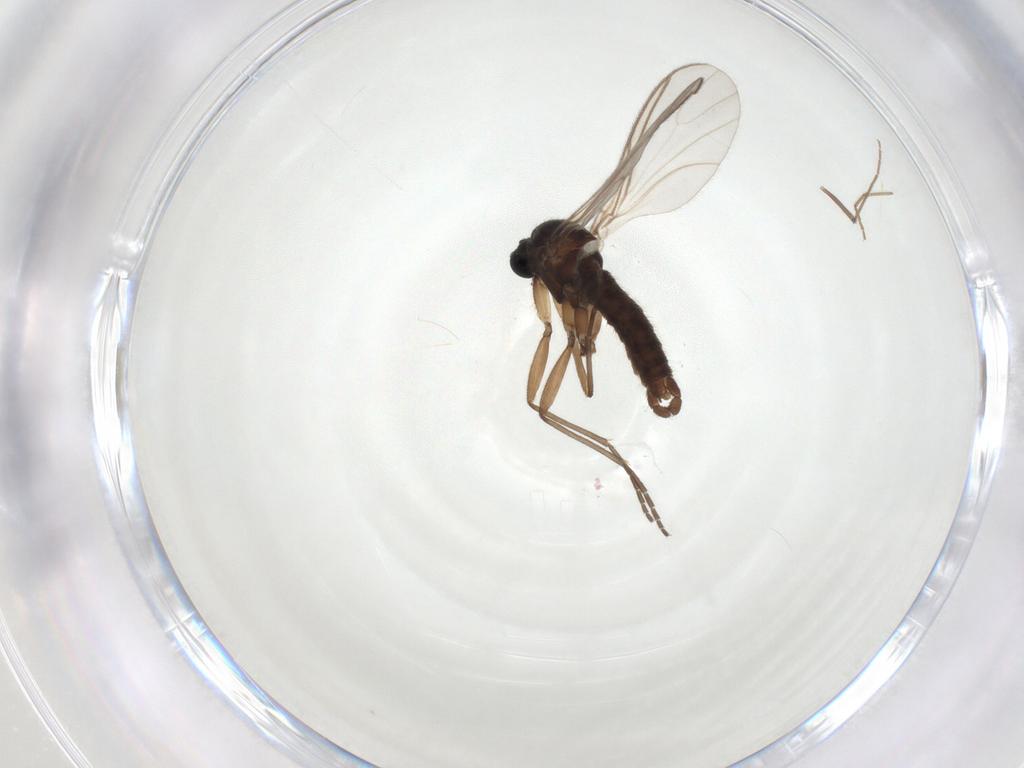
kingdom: Animalia
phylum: Arthropoda
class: Insecta
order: Diptera
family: Sciaridae
